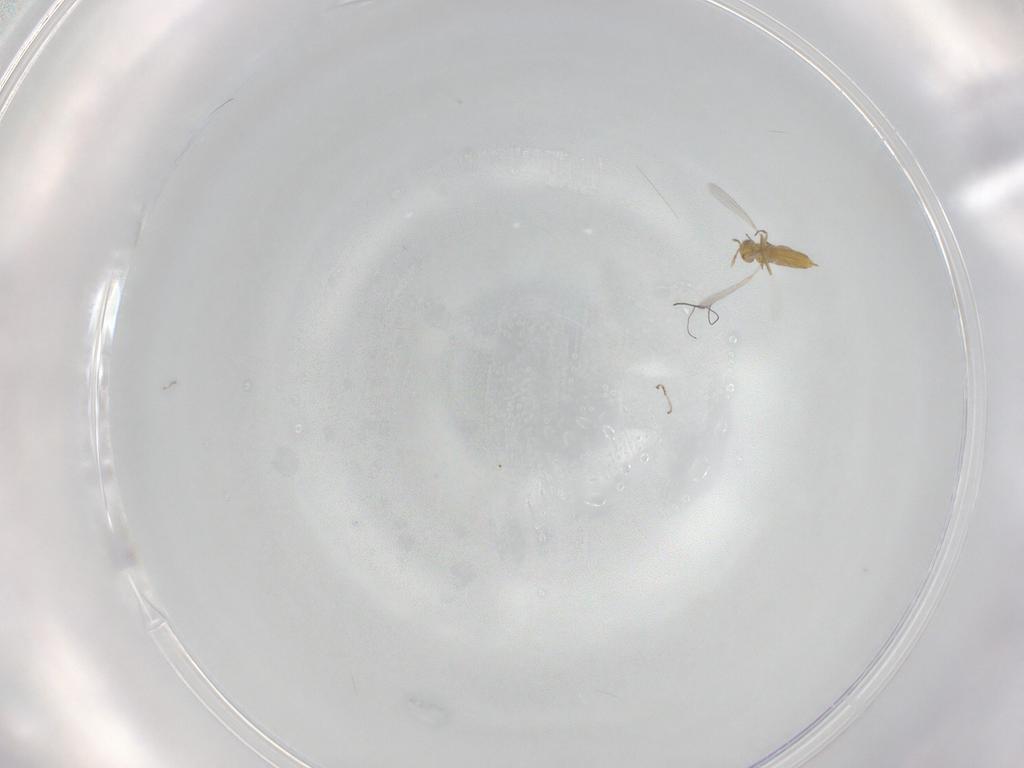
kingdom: Animalia
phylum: Arthropoda
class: Insecta
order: Hymenoptera
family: Aphelinidae
